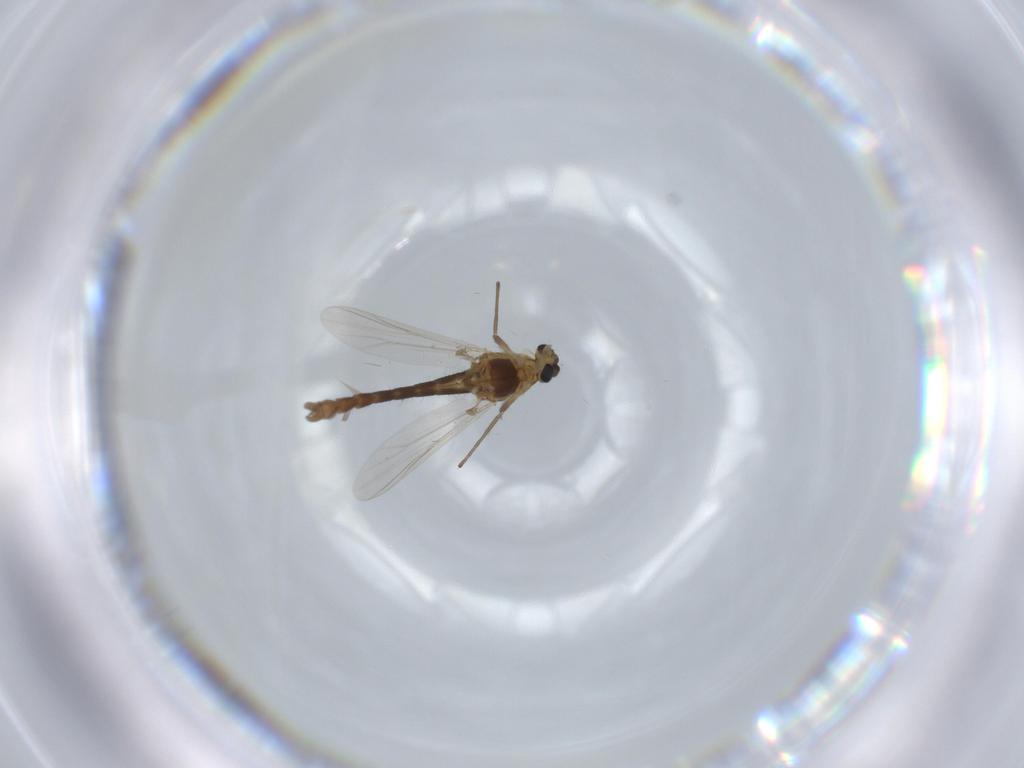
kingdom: Animalia
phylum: Arthropoda
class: Insecta
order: Diptera
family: Chironomidae
